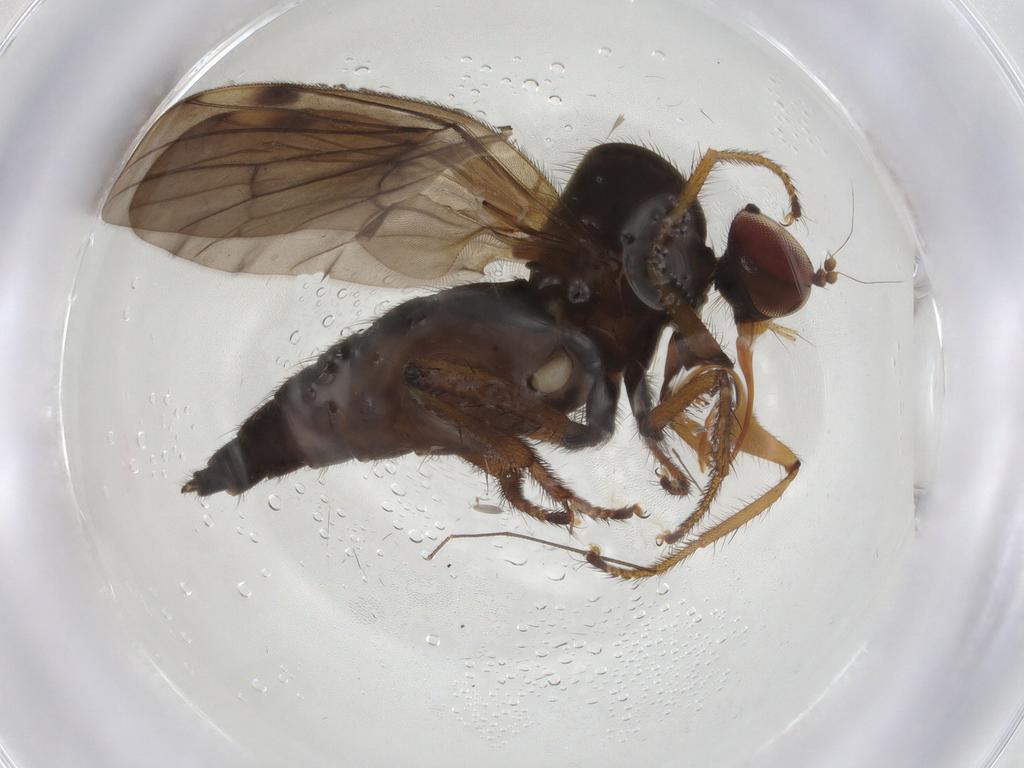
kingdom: Animalia
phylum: Arthropoda
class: Insecta
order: Diptera
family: Hybotidae
